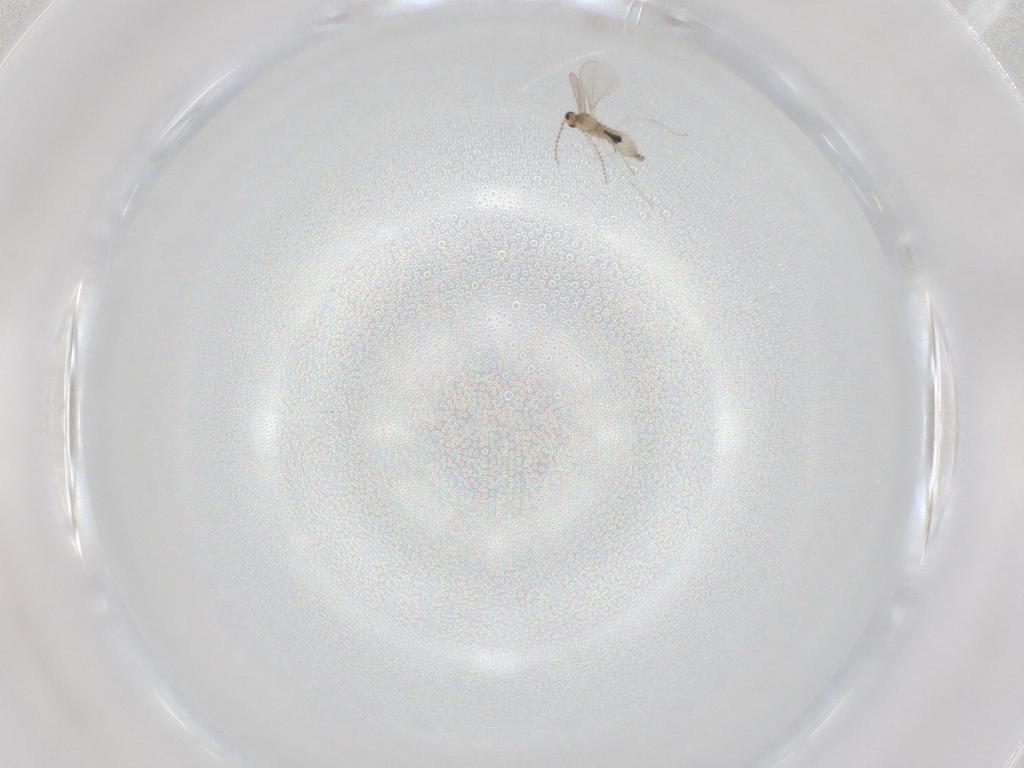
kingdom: Animalia
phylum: Arthropoda
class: Insecta
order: Diptera
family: Cecidomyiidae
